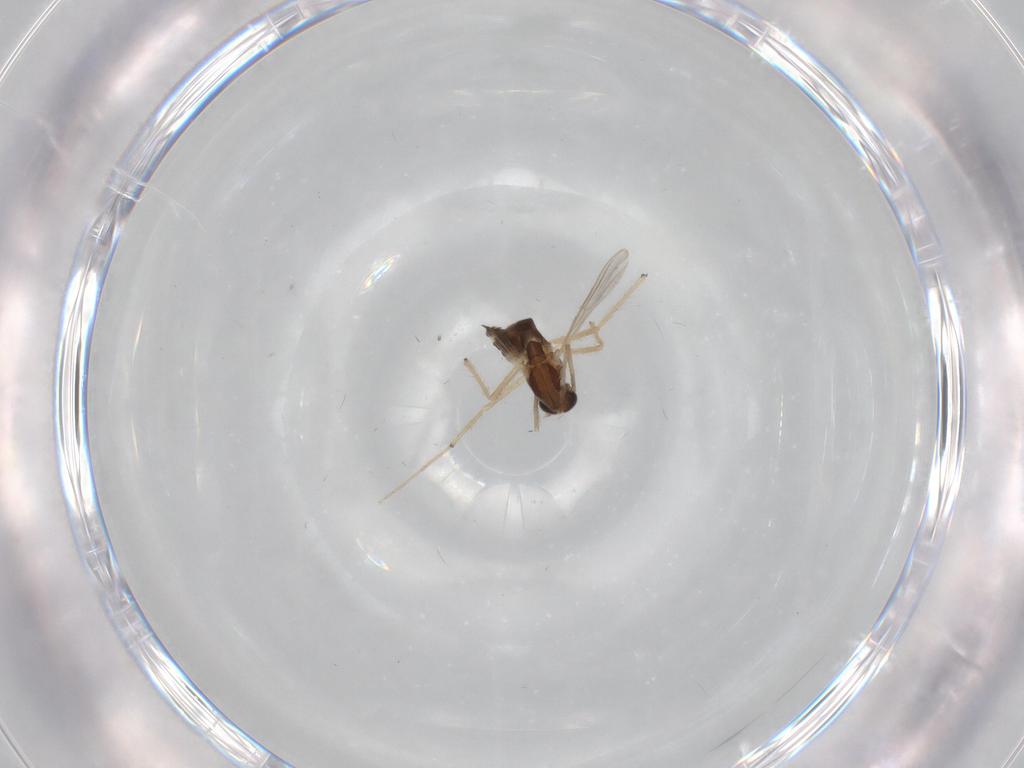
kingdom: Animalia
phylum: Arthropoda
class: Insecta
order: Diptera
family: Chironomidae
